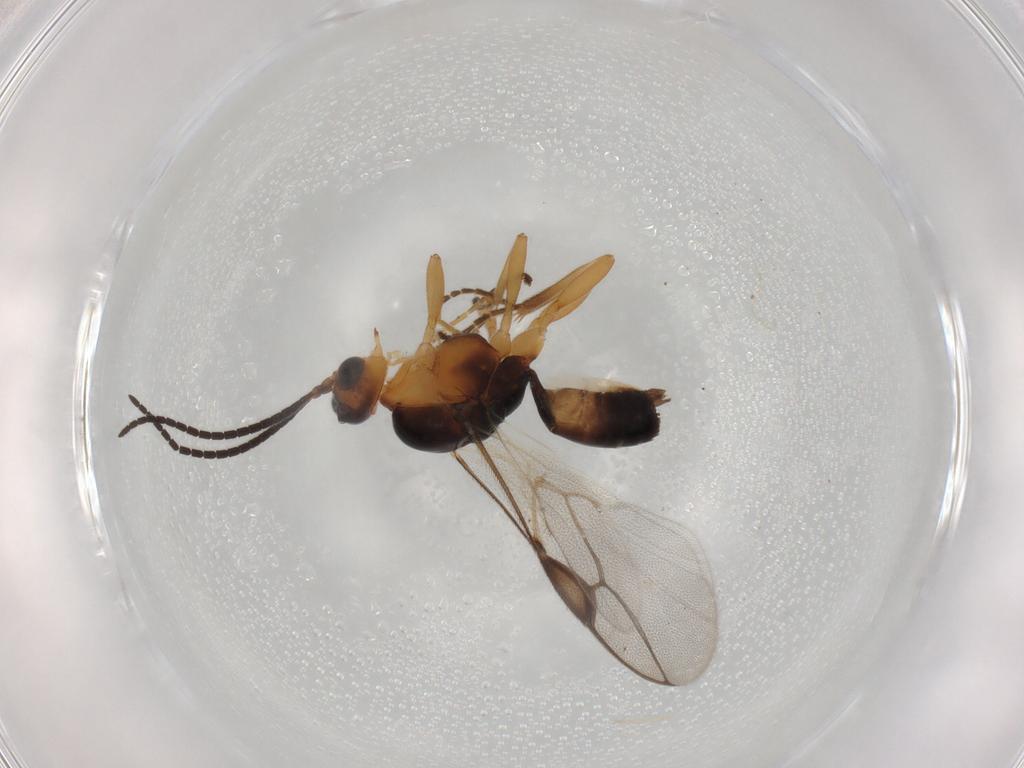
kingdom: Animalia
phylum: Arthropoda
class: Insecta
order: Hymenoptera
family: Braconidae
